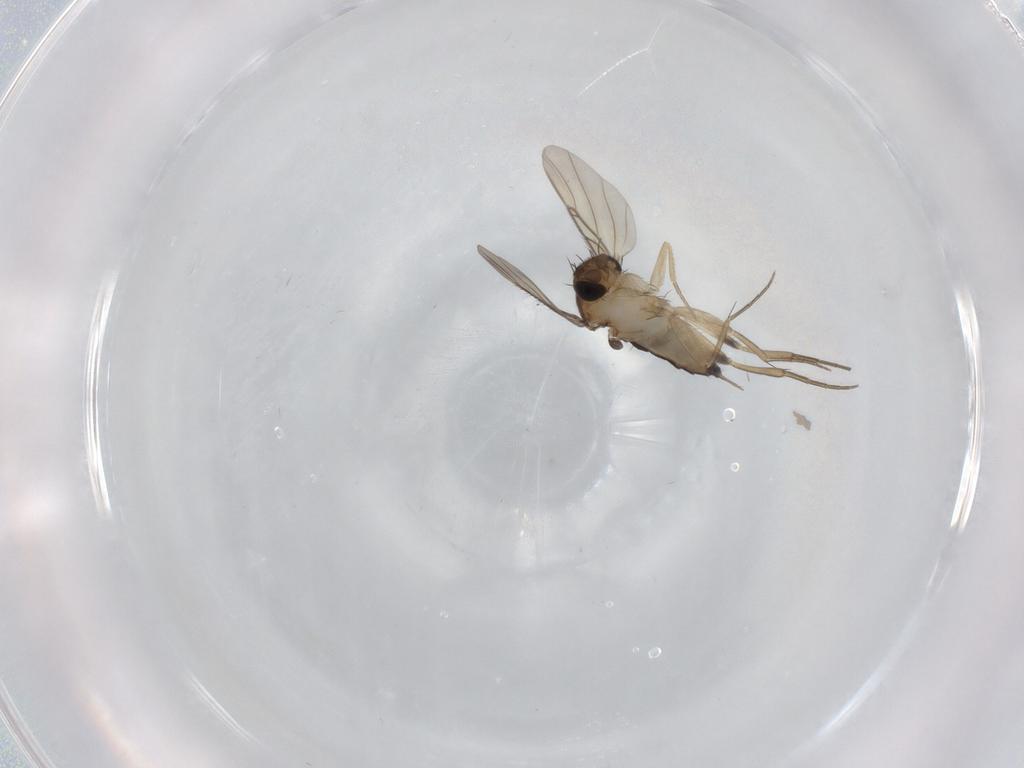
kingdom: Animalia
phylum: Arthropoda
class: Insecta
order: Diptera
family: Phoridae
